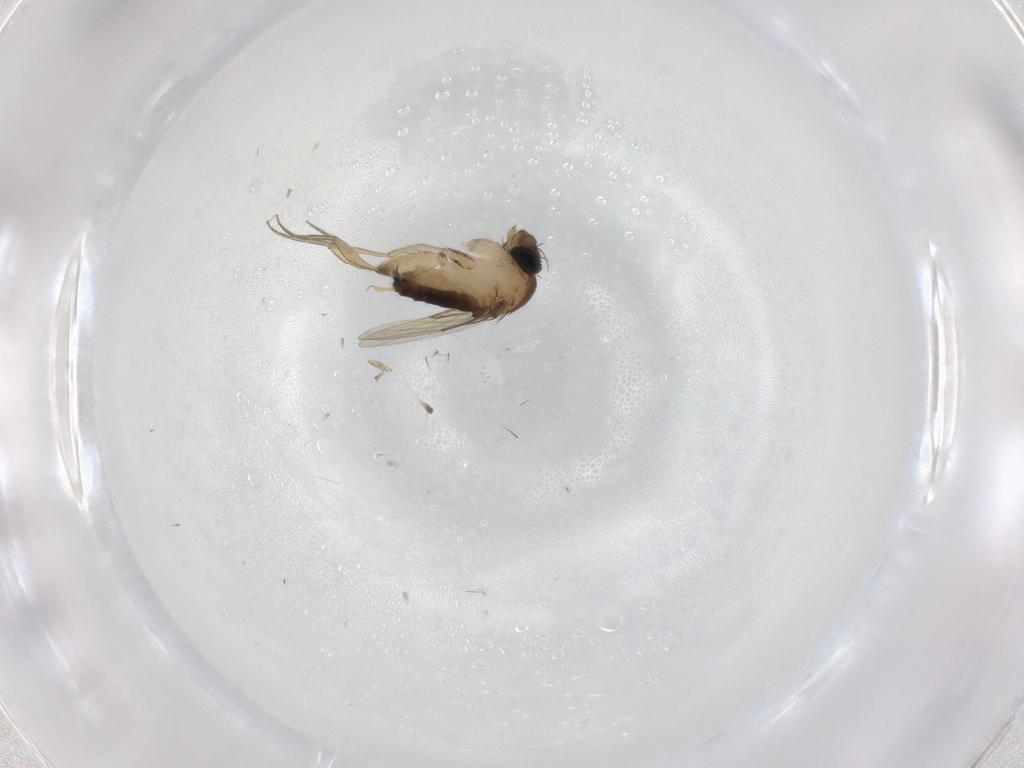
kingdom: Animalia
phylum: Arthropoda
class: Insecta
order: Diptera
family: Phoridae
